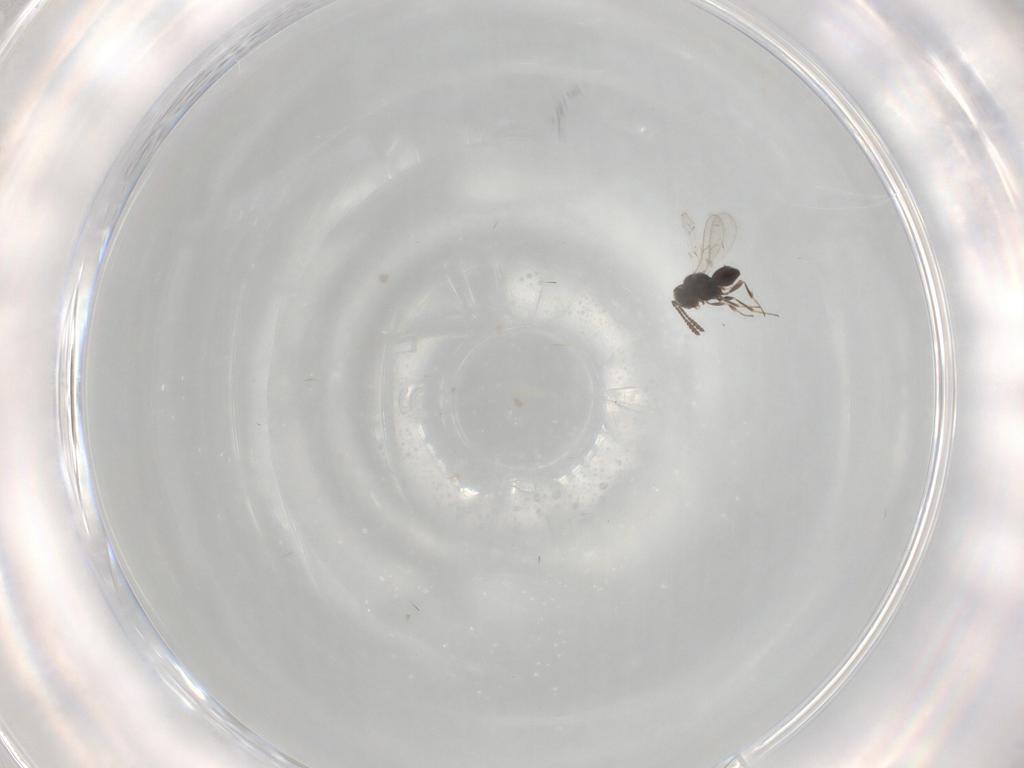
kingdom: Animalia
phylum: Arthropoda
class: Insecta
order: Hymenoptera
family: Scelionidae
